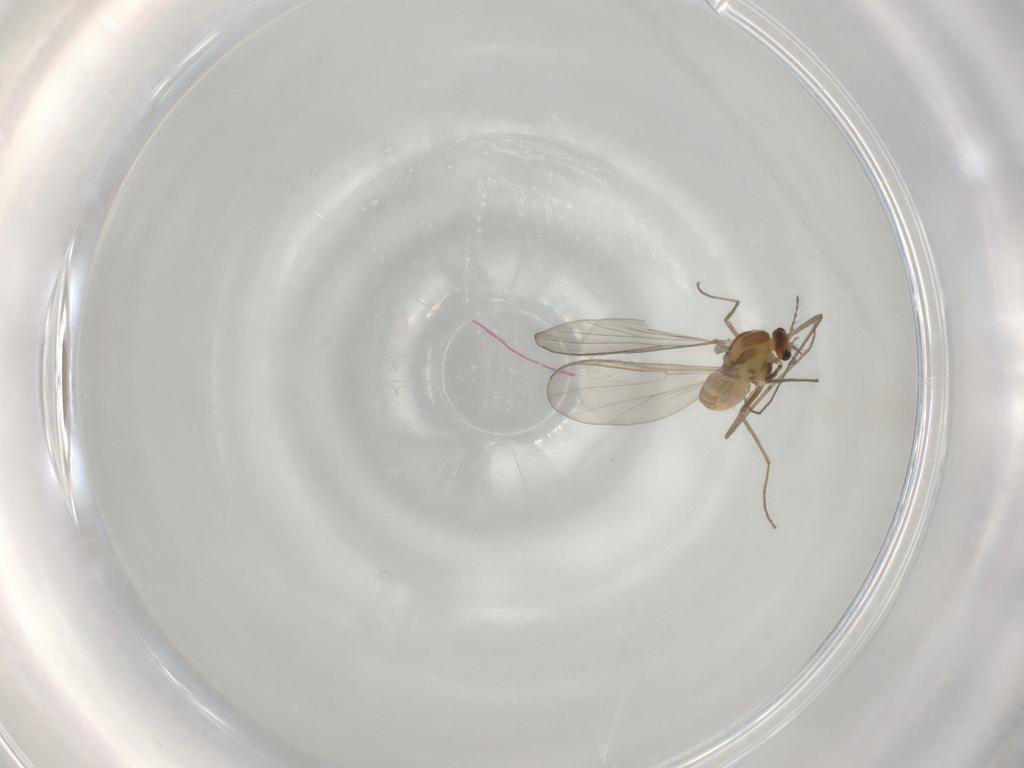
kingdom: Animalia
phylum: Arthropoda
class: Insecta
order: Diptera
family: Chironomidae
